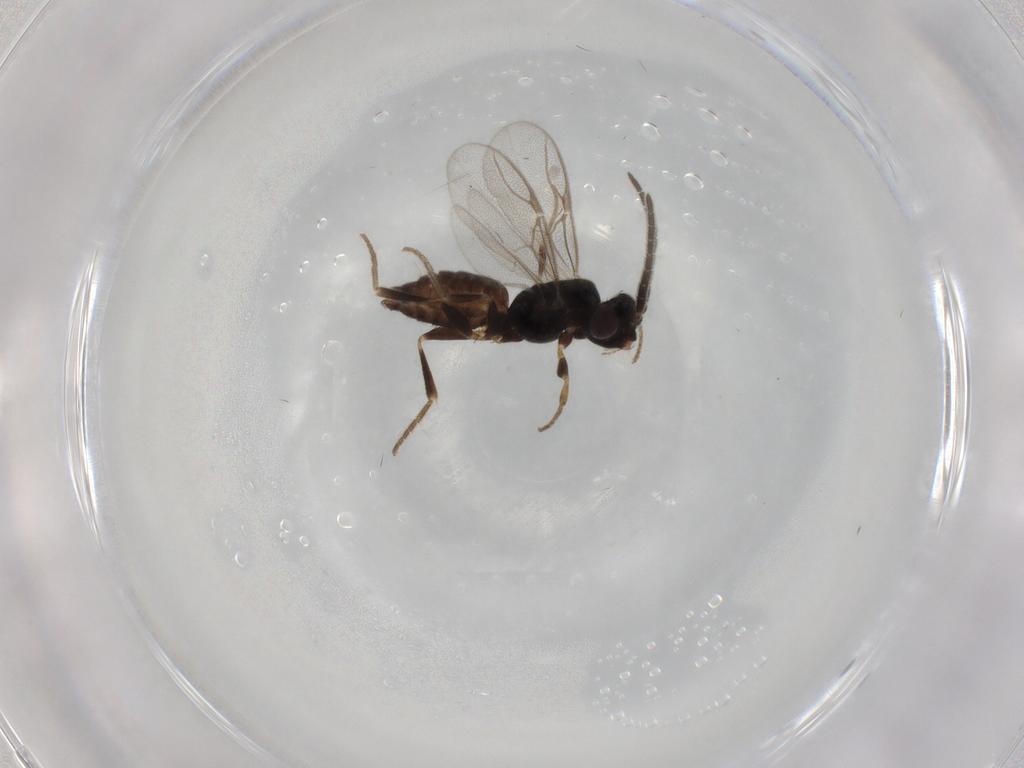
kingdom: Animalia
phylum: Arthropoda
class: Insecta
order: Hymenoptera
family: Dryinidae
